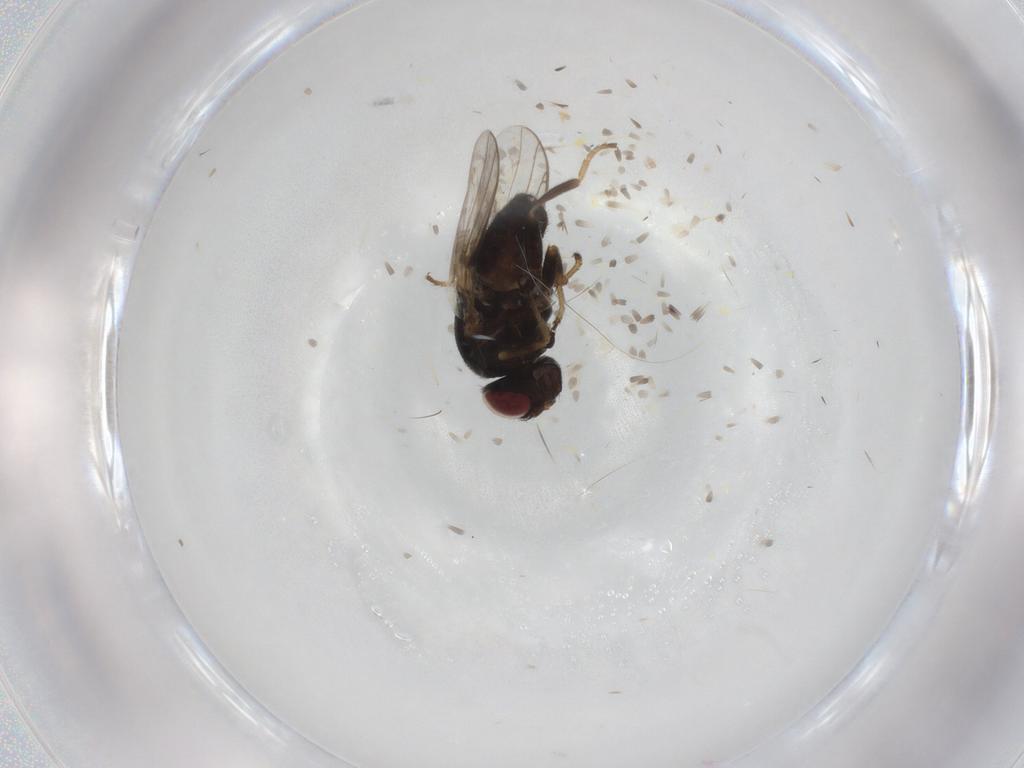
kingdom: Animalia
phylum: Arthropoda
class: Insecta
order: Diptera
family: Chloropidae
